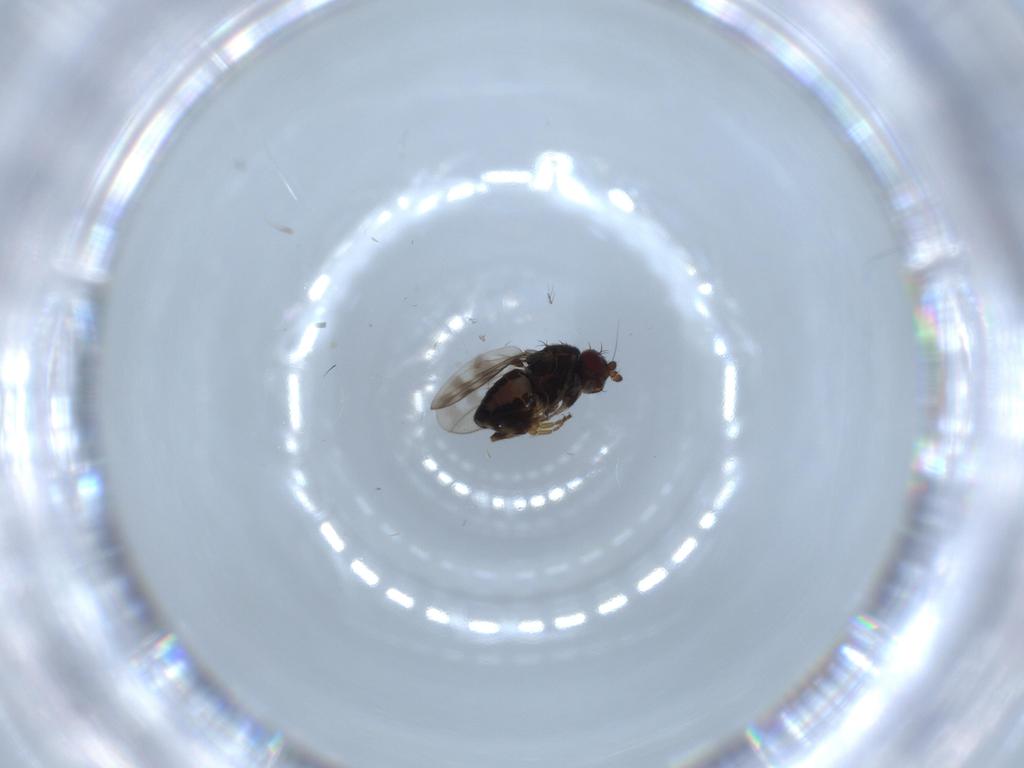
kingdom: Animalia
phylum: Arthropoda
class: Insecta
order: Diptera
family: Sphaeroceridae
